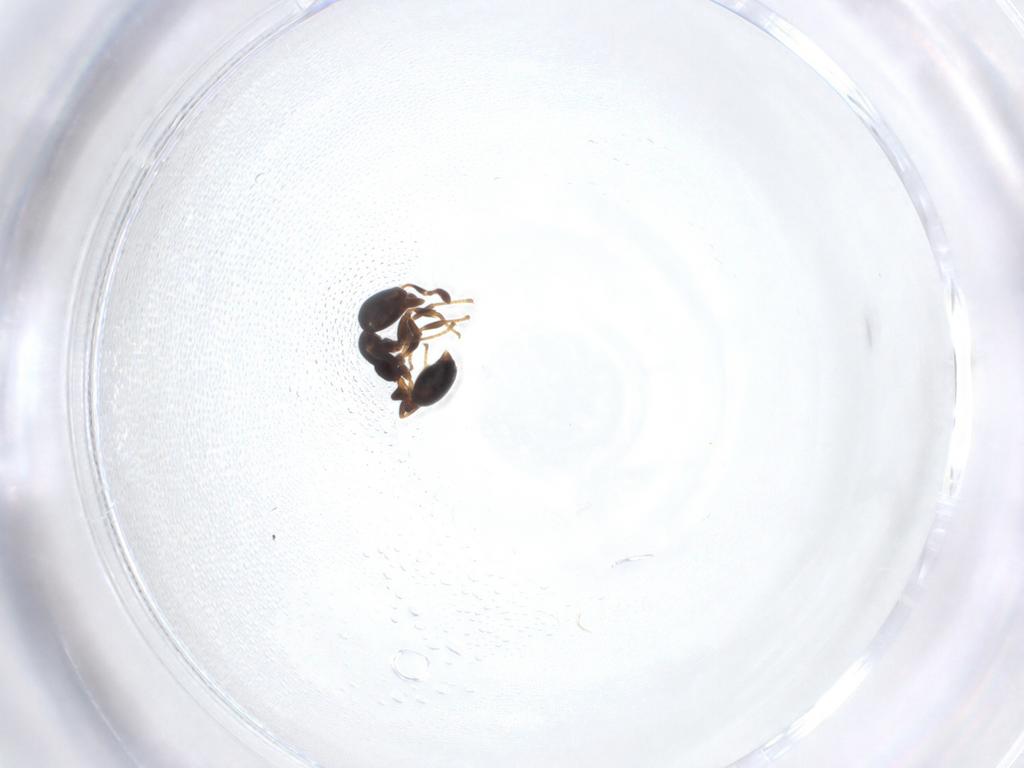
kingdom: Animalia
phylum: Arthropoda
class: Insecta
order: Hymenoptera
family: Formicidae
